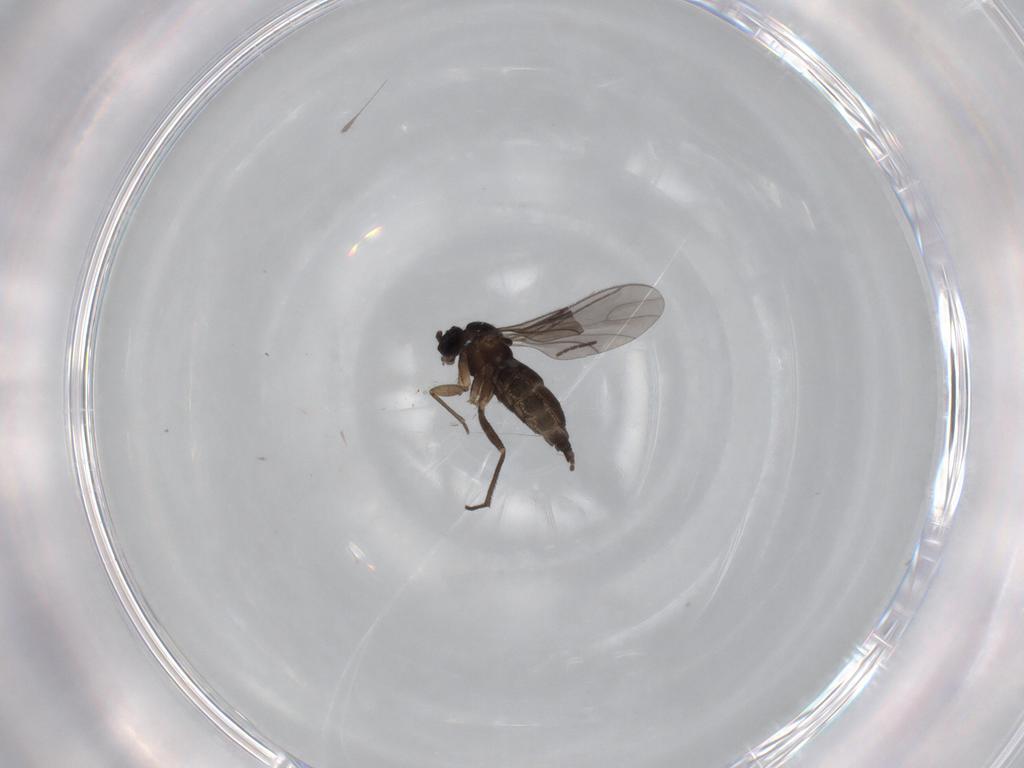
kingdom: Animalia
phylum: Arthropoda
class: Insecta
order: Diptera
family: Sciaridae
